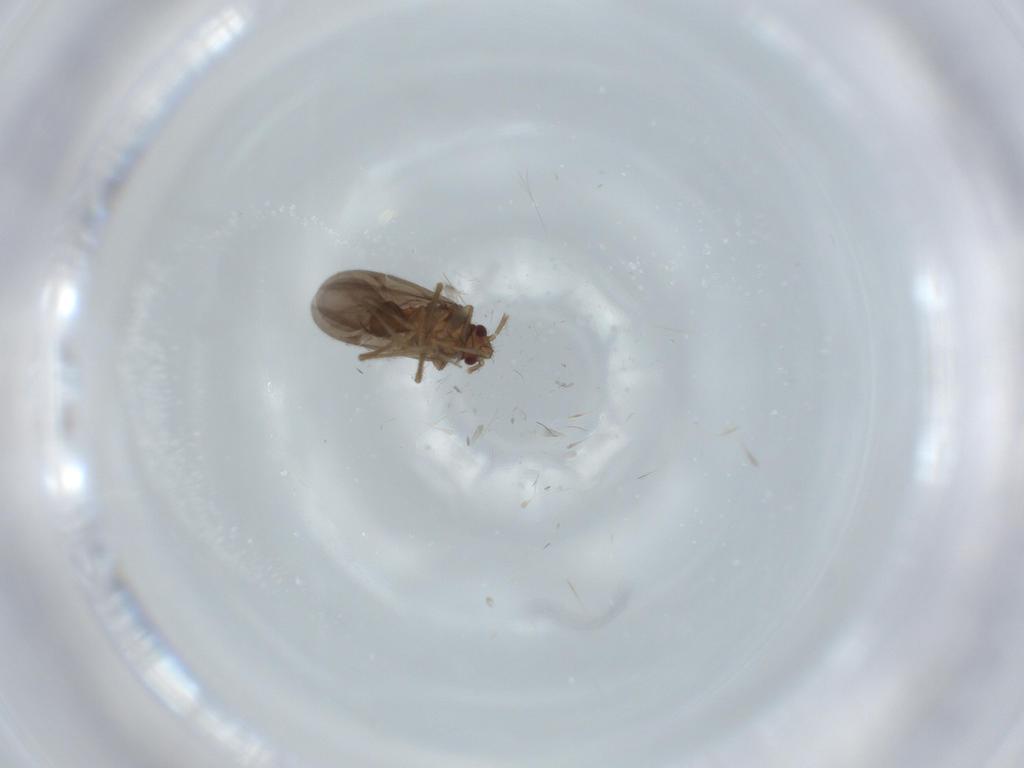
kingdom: Animalia
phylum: Arthropoda
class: Insecta
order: Hemiptera
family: Ceratocombidae
